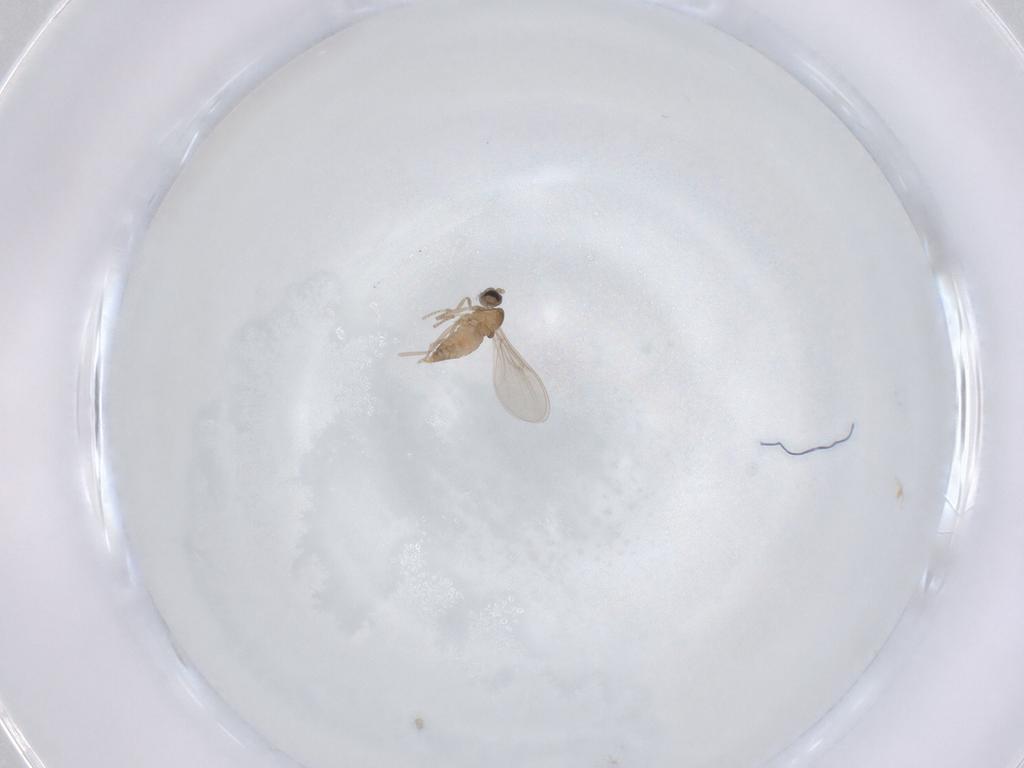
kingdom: Animalia
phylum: Arthropoda
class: Insecta
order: Diptera
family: Cecidomyiidae
